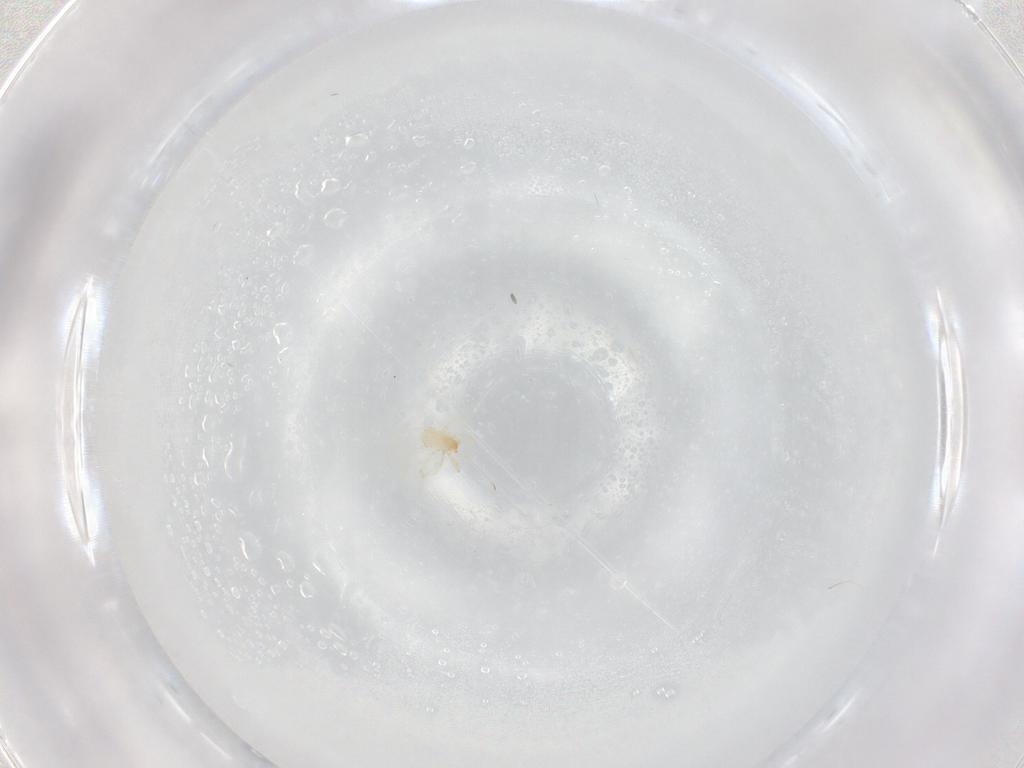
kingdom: Animalia
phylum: Arthropoda
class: Arachnida
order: Trombidiformes
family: Erythraeidae
